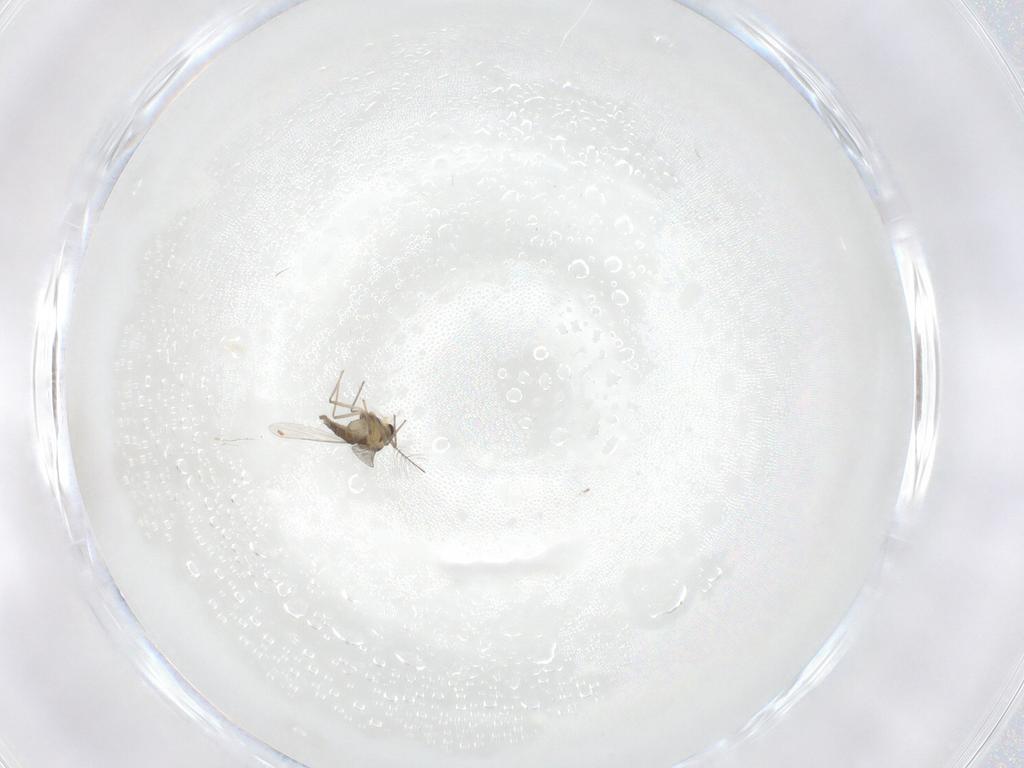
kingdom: Animalia
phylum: Arthropoda
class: Insecta
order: Diptera
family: Chironomidae
